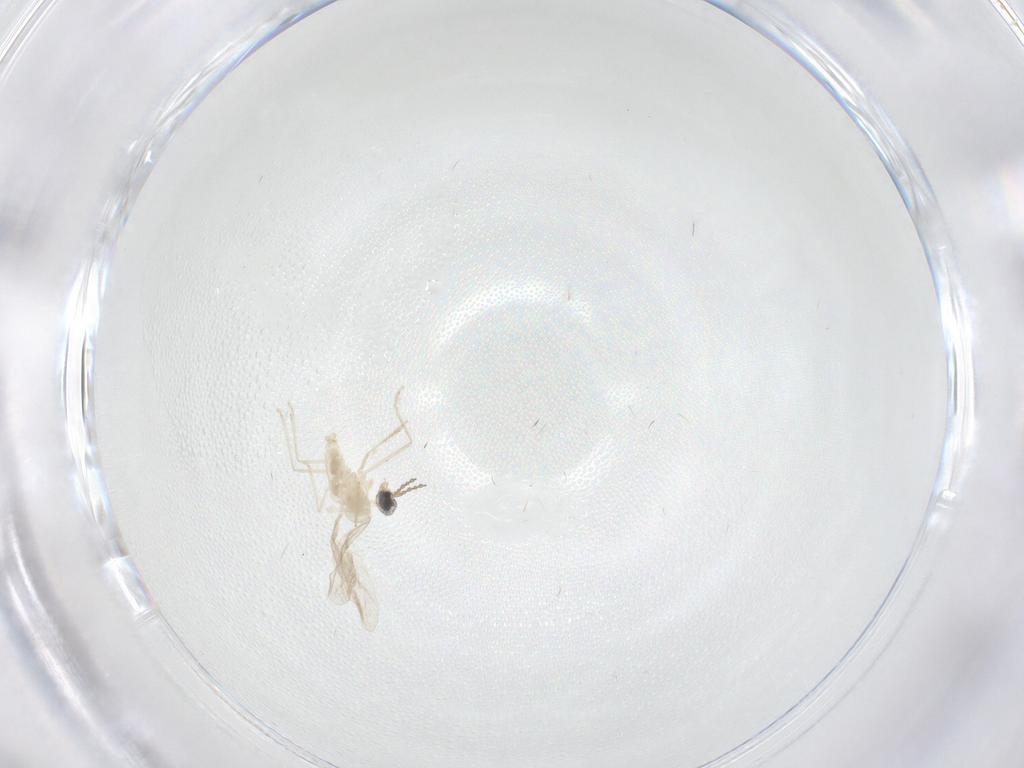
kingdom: Animalia
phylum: Arthropoda
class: Insecta
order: Diptera
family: Cecidomyiidae
